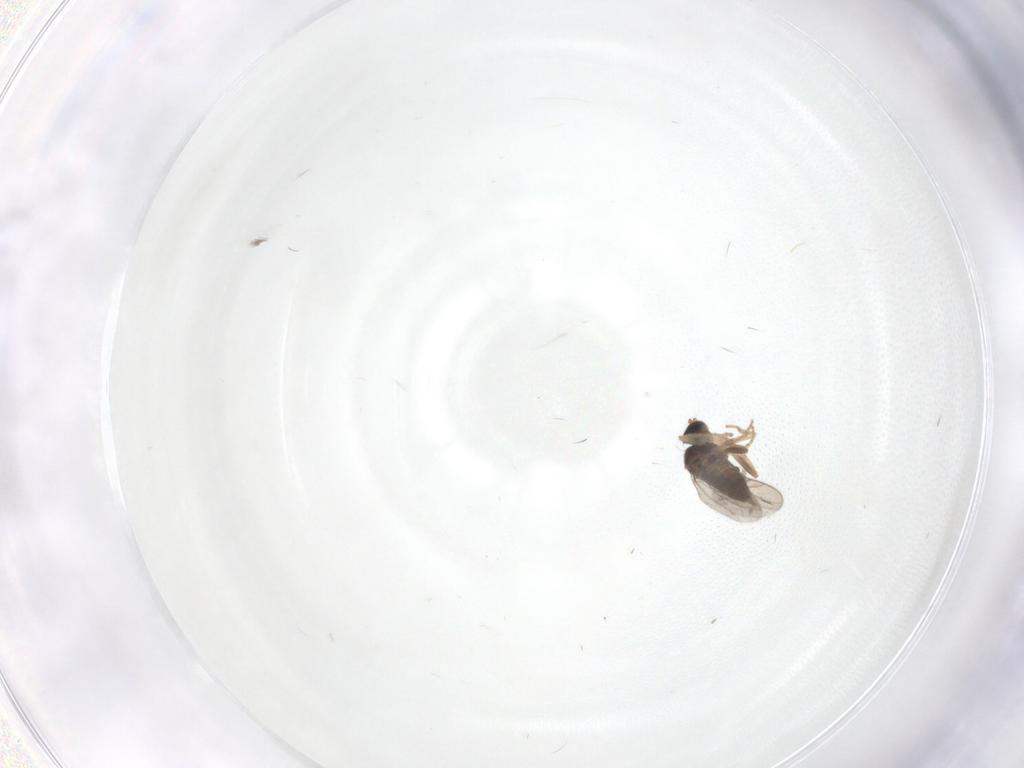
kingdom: Animalia
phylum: Arthropoda
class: Insecta
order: Diptera
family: Hybotidae
